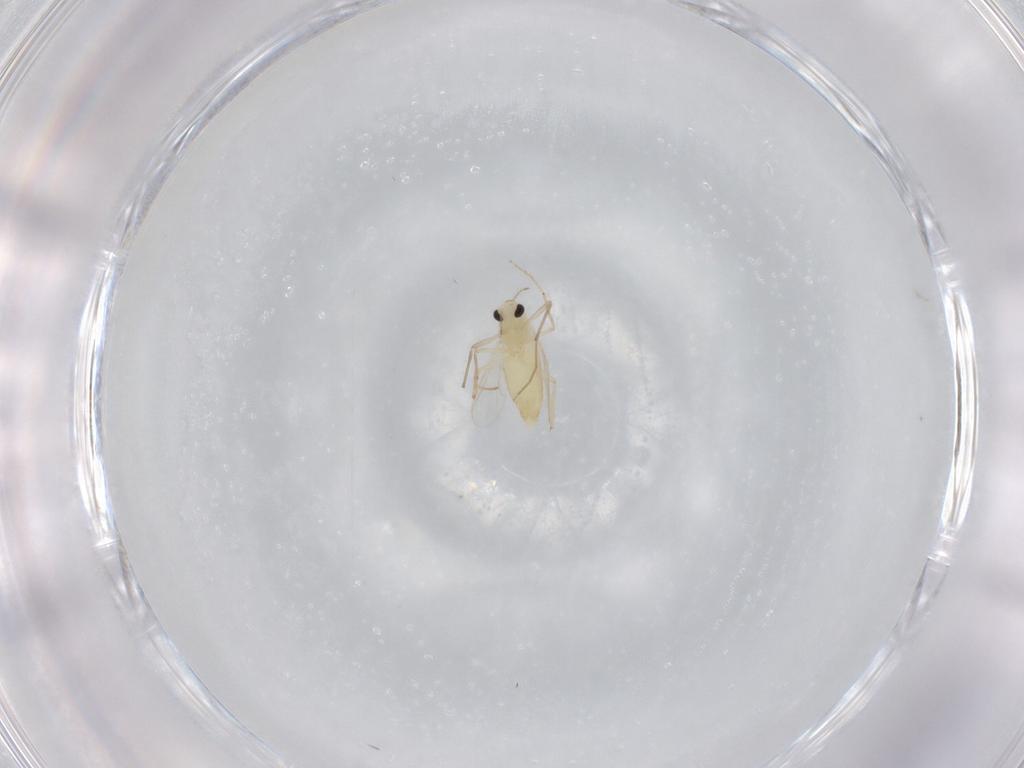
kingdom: Animalia
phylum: Arthropoda
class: Insecta
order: Diptera
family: Chironomidae
